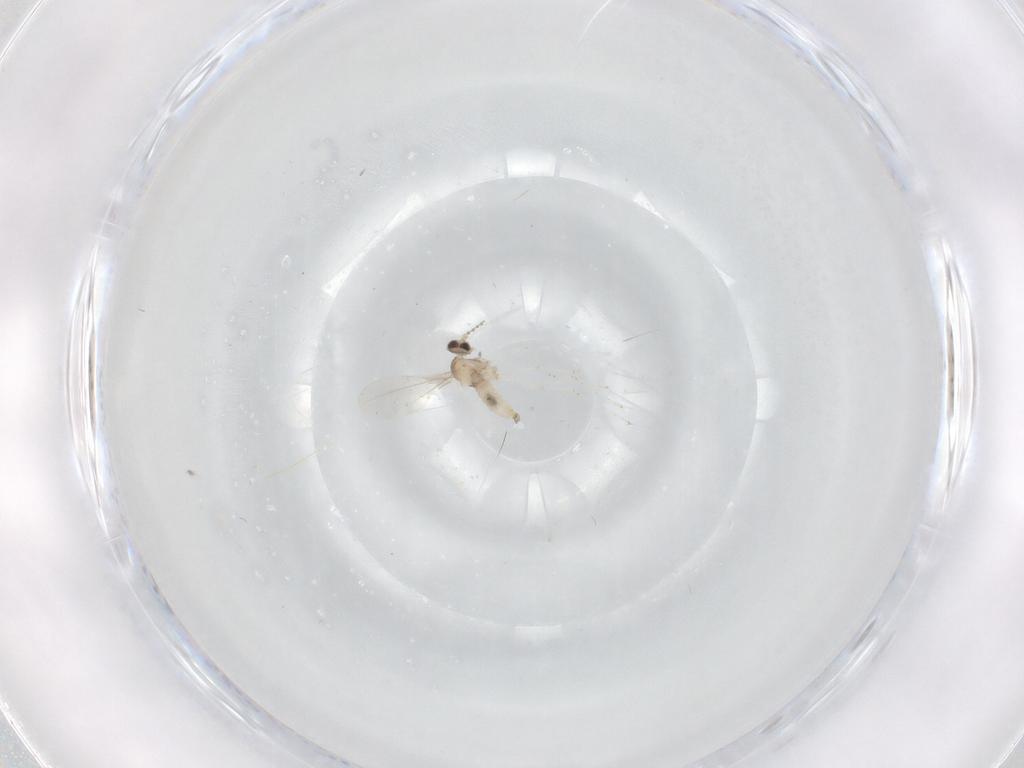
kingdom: Animalia
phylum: Arthropoda
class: Insecta
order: Diptera
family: Cecidomyiidae
